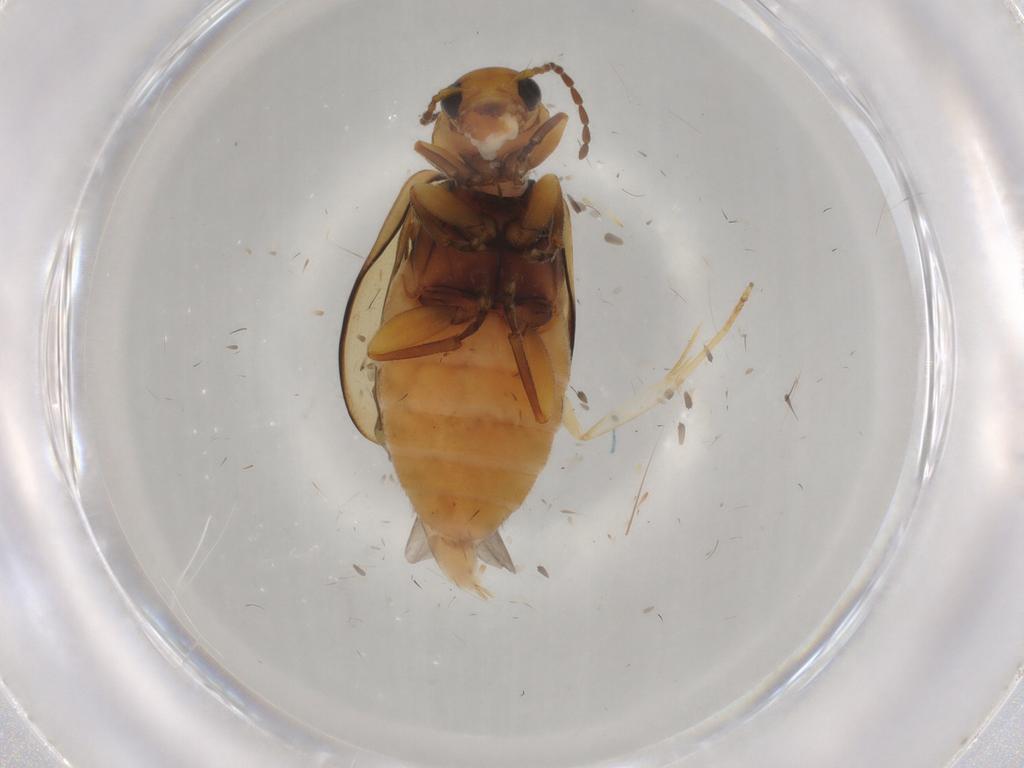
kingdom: Animalia
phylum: Arthropoda
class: Insecta
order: Coleoptera
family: Chrysomelidae
